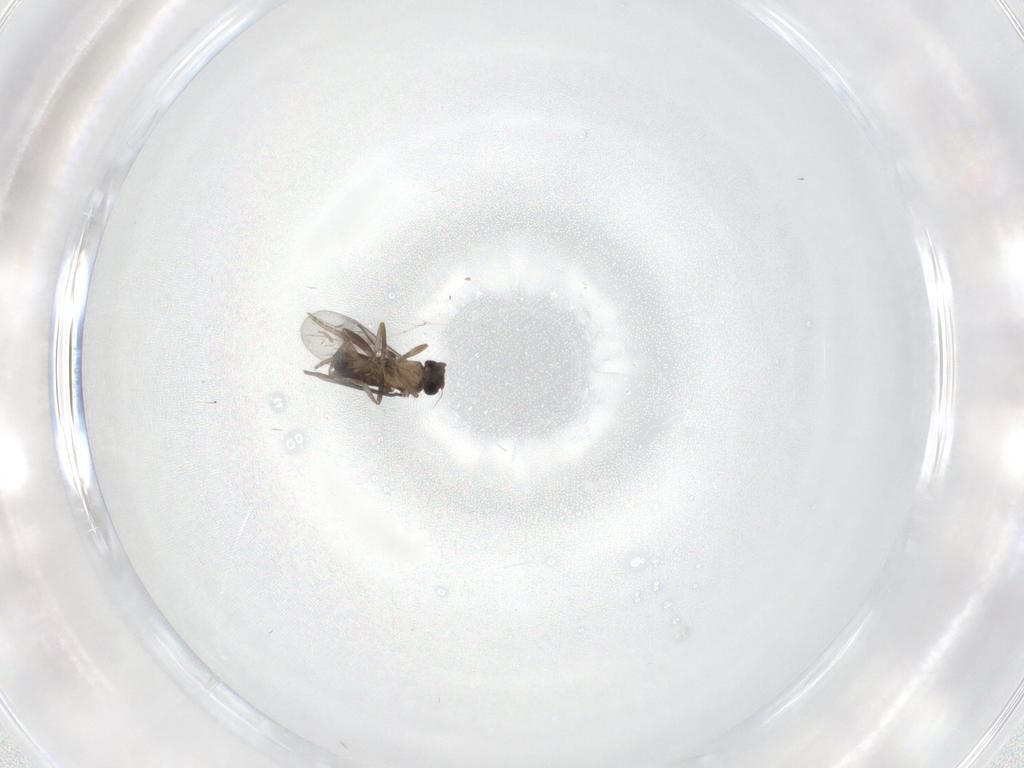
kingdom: Animalia
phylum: Arthropoda
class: Insecta
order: Diptera
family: Cecidomyiidae
